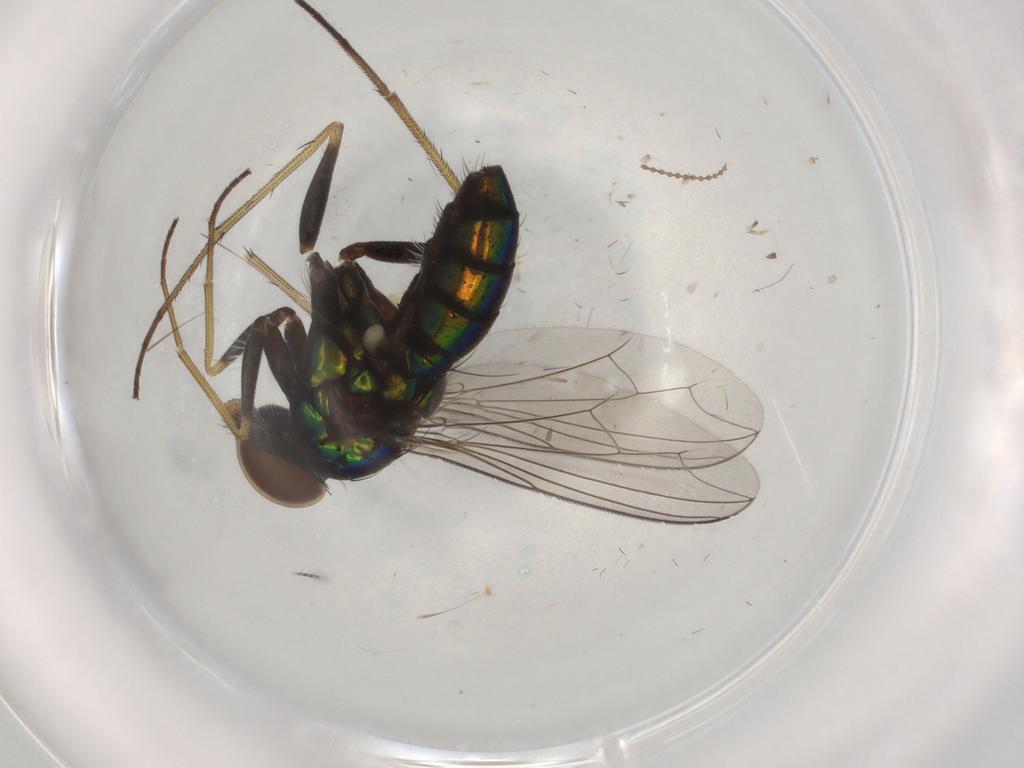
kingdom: Animalia
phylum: Arthropoda
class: Insecta
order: Diptera
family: Dolichopodidae
